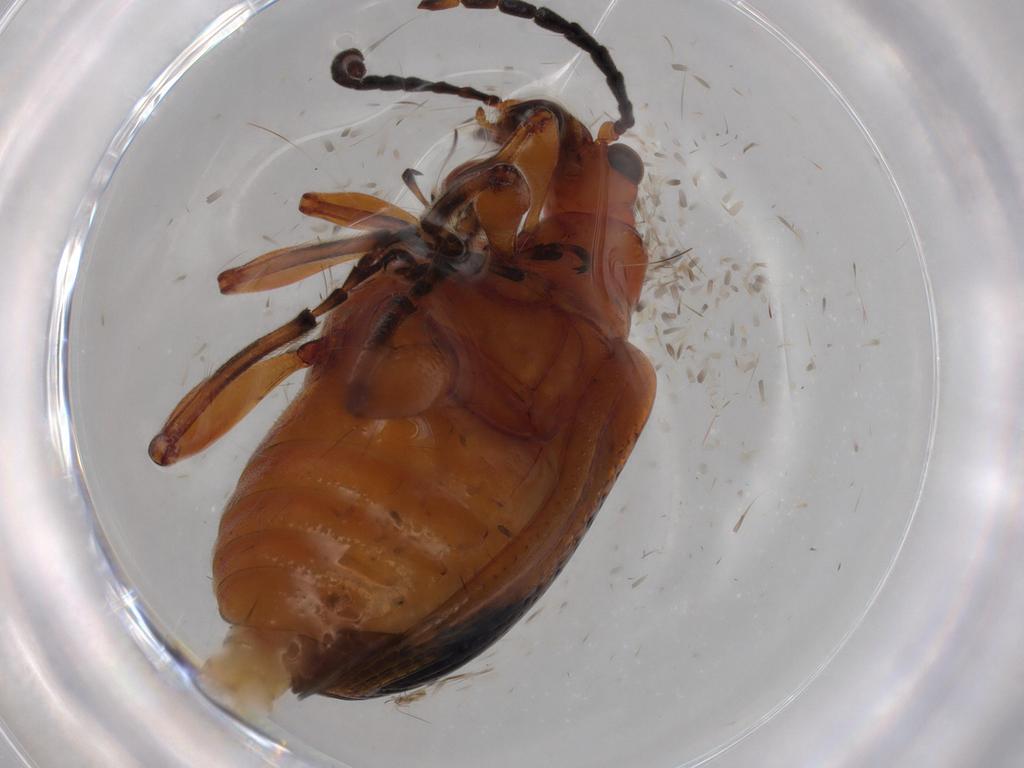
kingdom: Animalia
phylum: Arthropoda
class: Insecta
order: Coleoptera
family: Chrysomelidae
